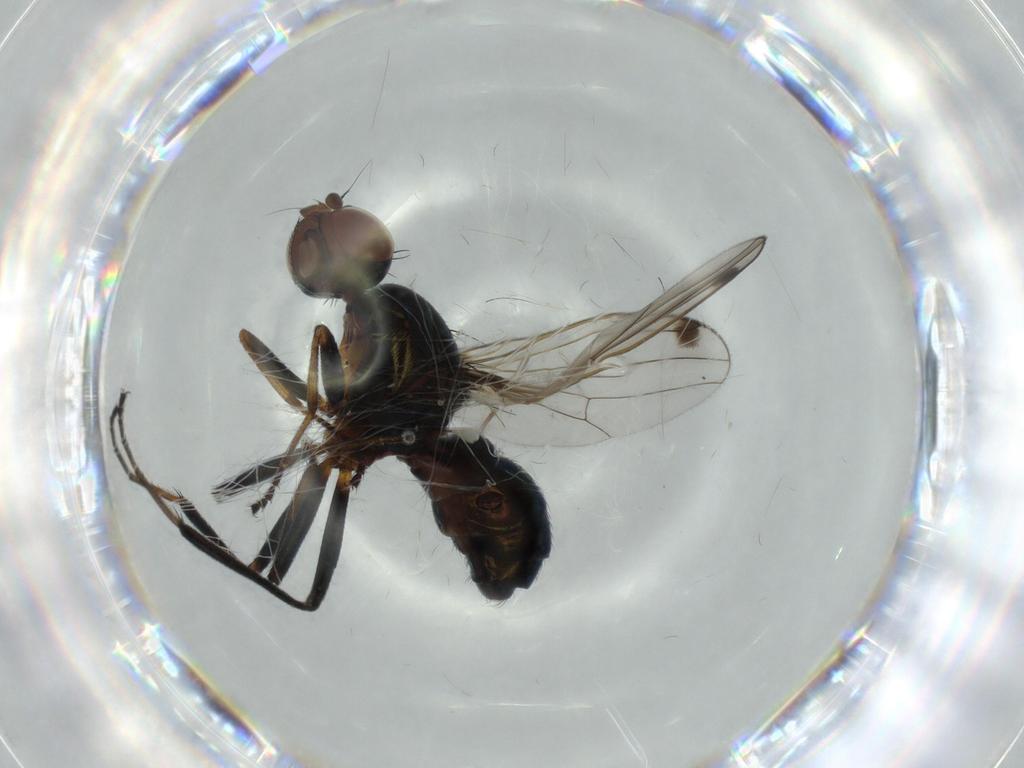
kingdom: Animalia
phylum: Arthropoda
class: Insecta
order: Diptera
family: Sepsidae
